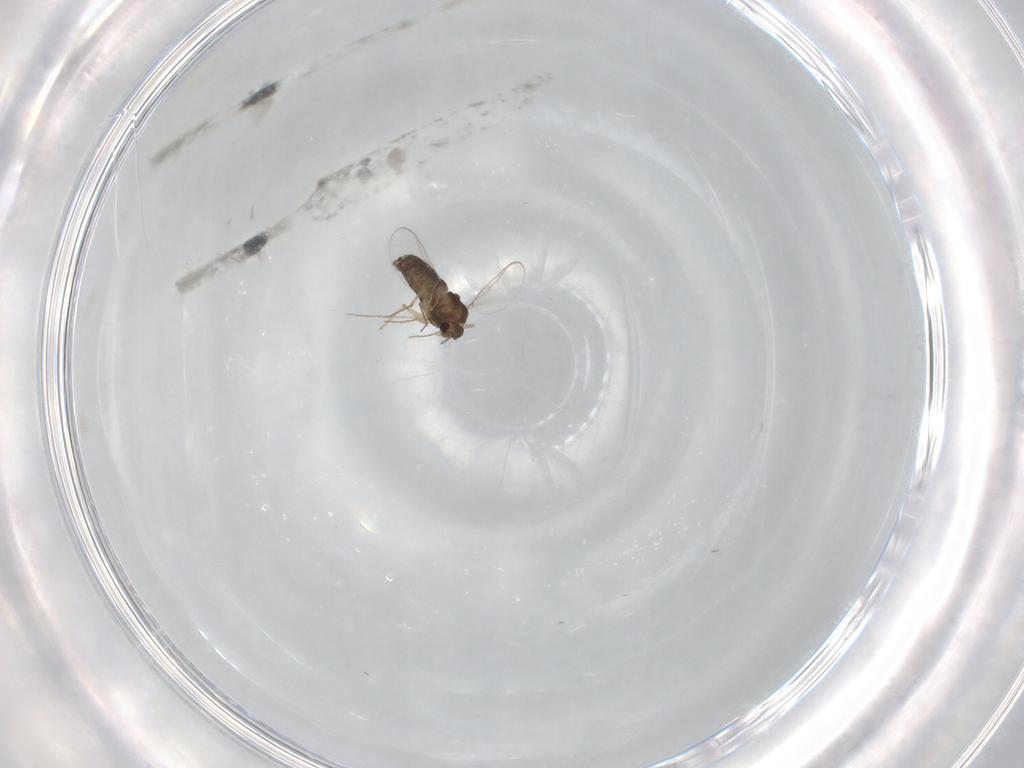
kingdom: Animalia
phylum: Arthropoda
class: Insecta
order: Diptera
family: Chironomidae
